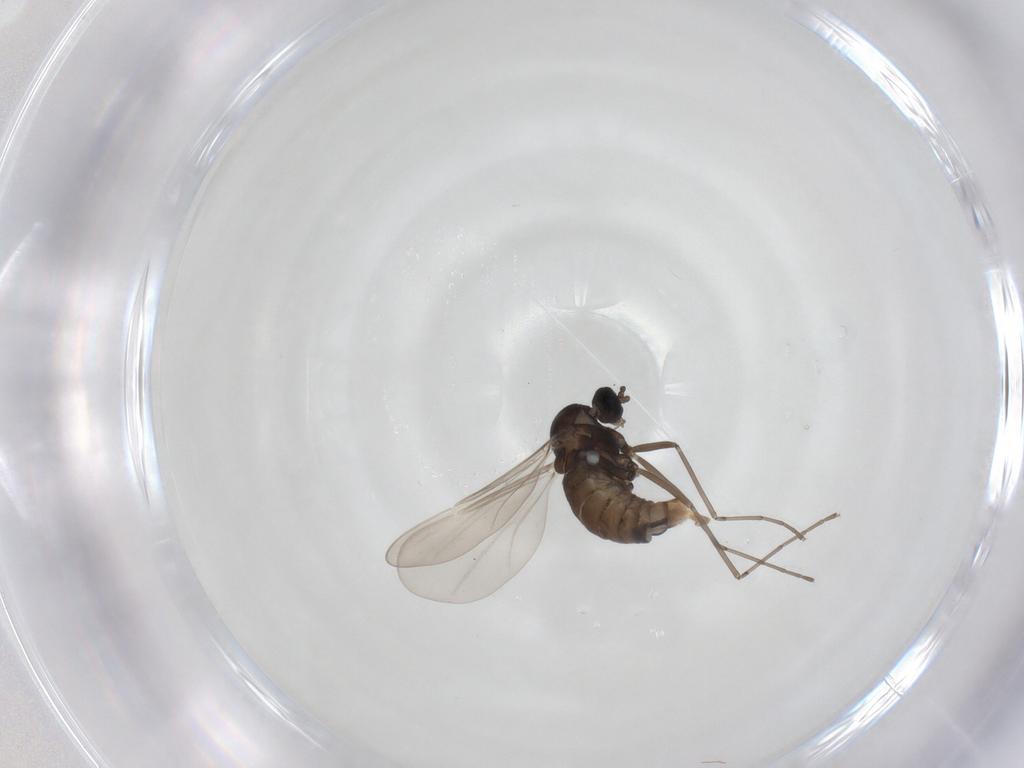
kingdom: Animalia
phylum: Arthropoda
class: Insecta
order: Diptera
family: Cecidomyiidae
